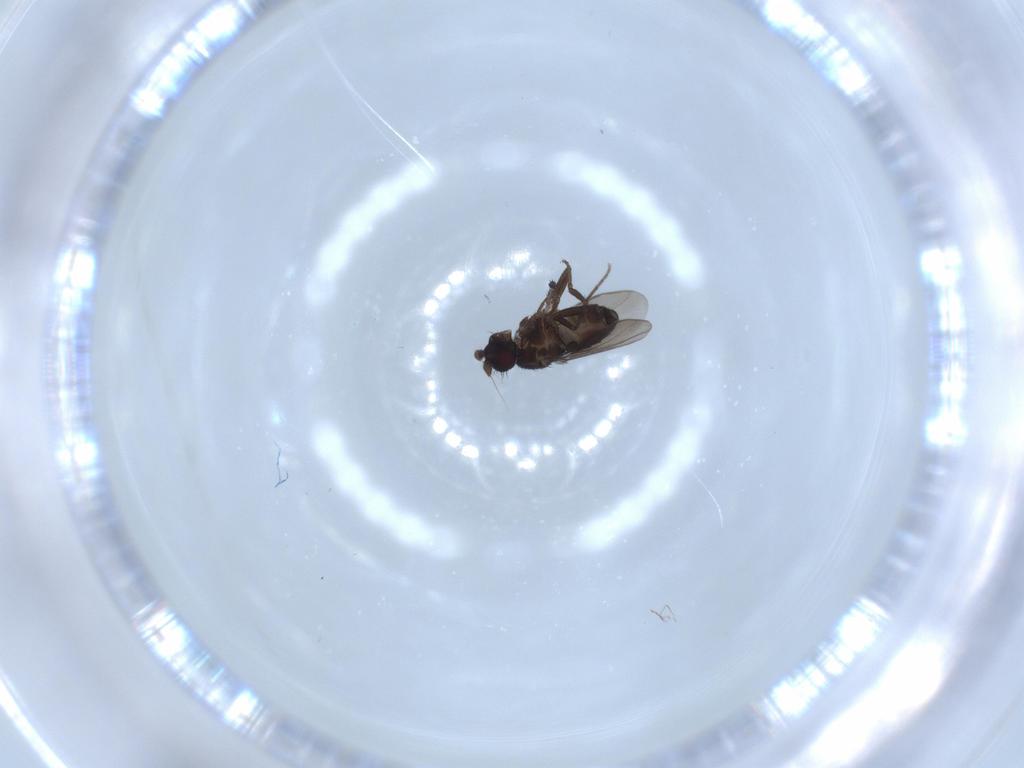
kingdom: Animalia
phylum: Arthropoda
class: Insecta
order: Diptera
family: Sphaeroceridae
